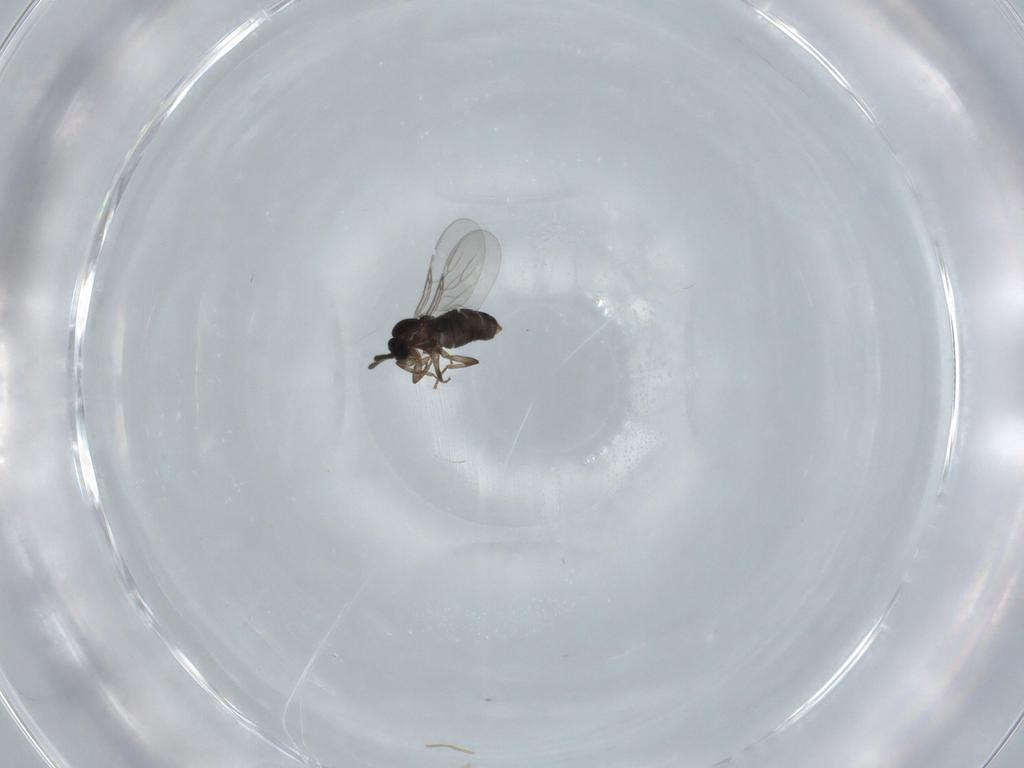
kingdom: Animalia
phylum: Arthropoda
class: Insecta
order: Diptera
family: Scatopsidae
